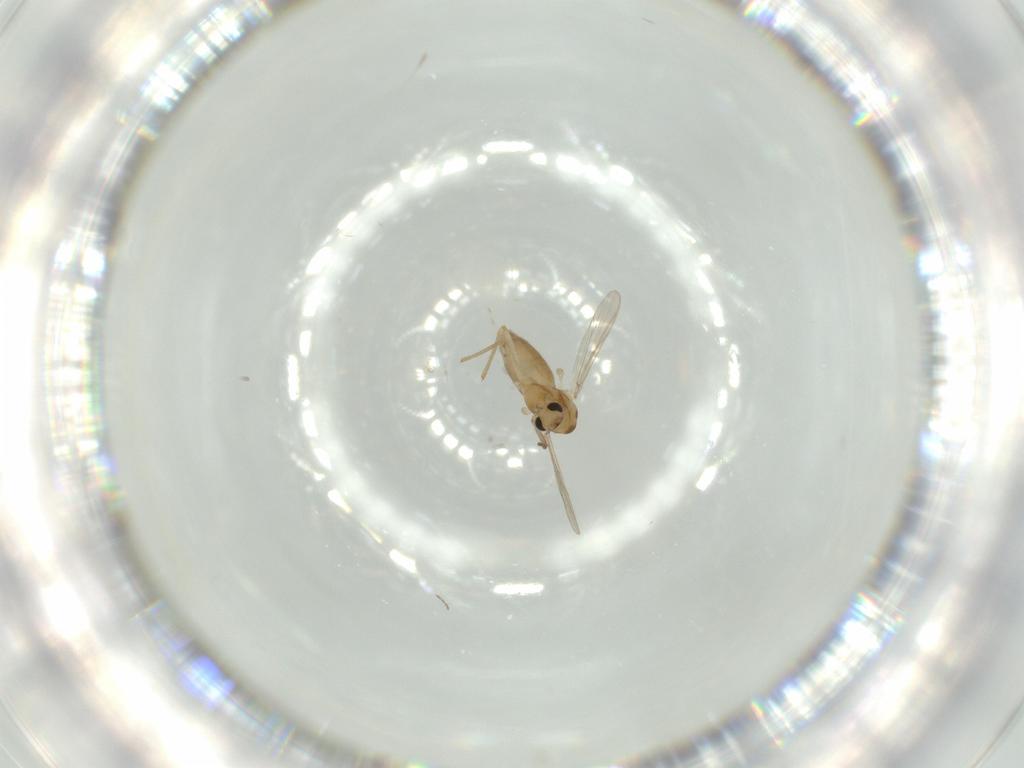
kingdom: Animalia
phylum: Arthropoda
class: Insecta
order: Diptera
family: Chironomidae
